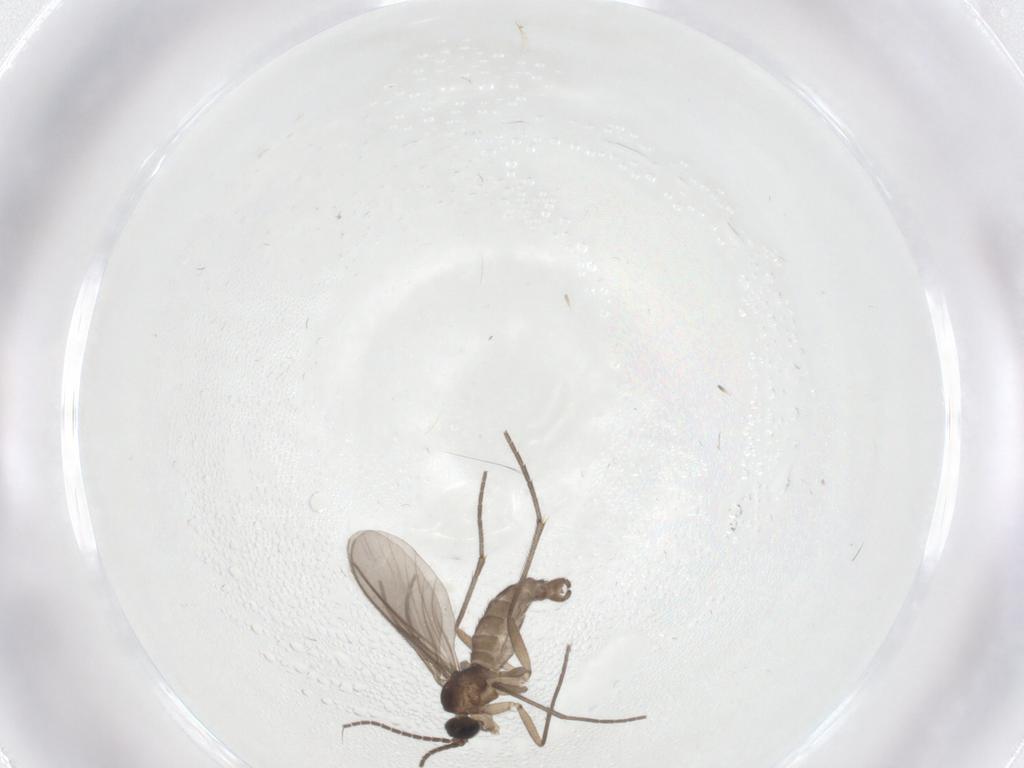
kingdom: Animalia
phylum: Arthropoda
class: Insecta
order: Diptera
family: Sciaridae
